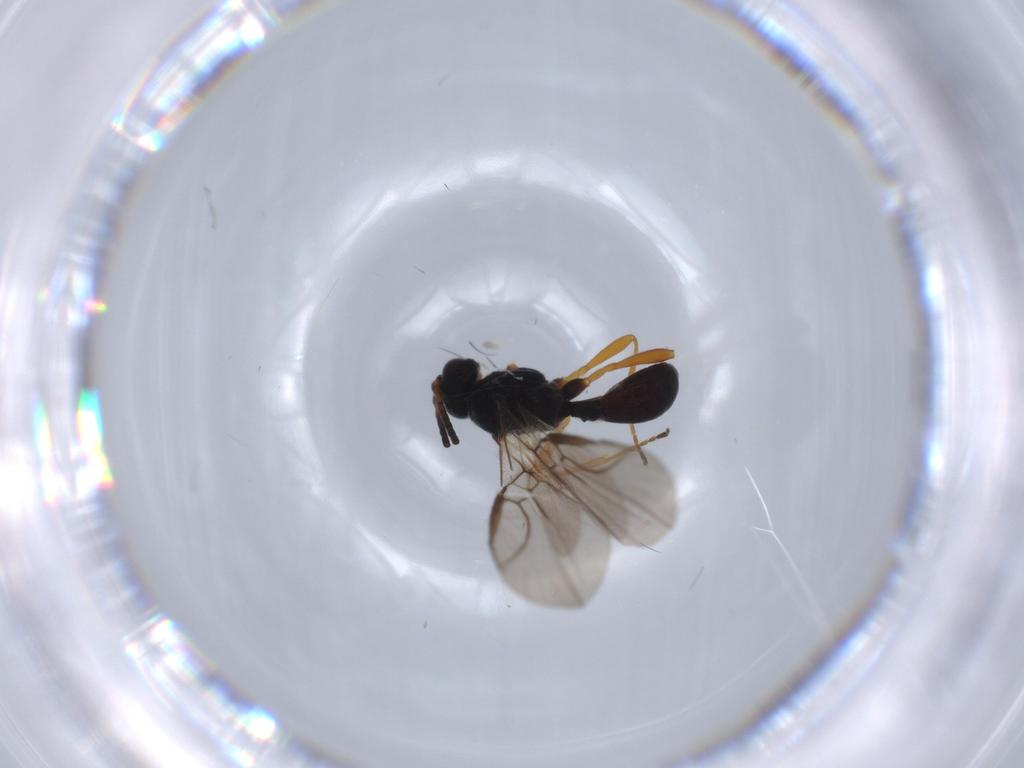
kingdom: Animalia
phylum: Arthropoda
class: Insecta
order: Hymenoptera
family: Braconidae
